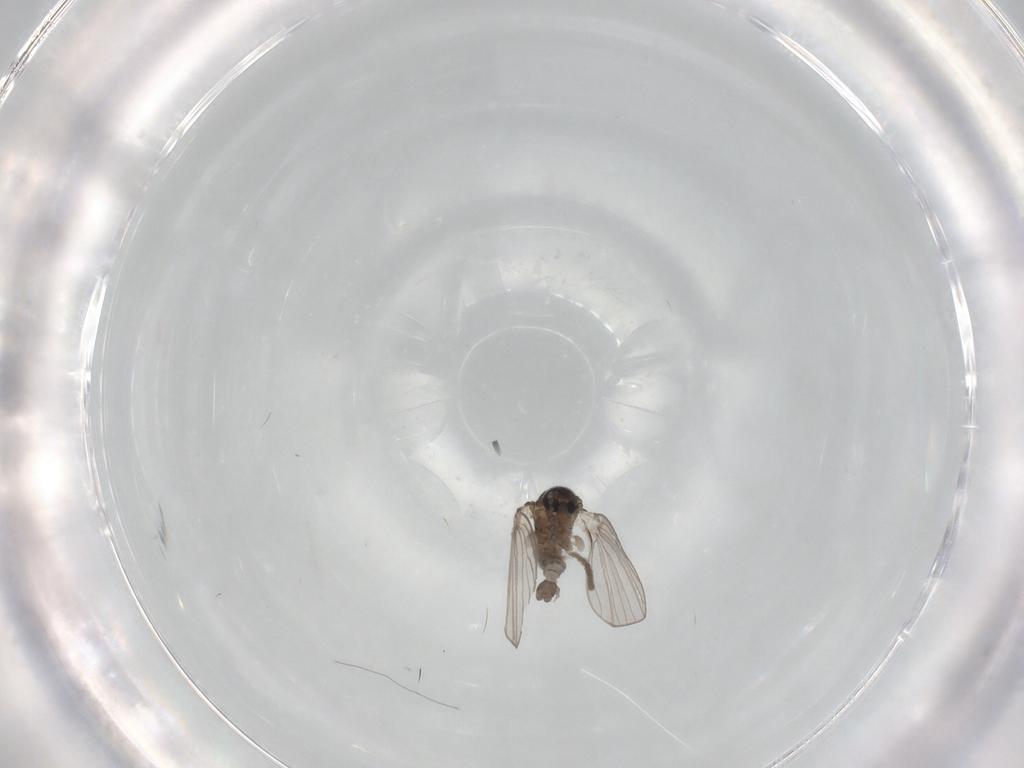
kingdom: Animalia
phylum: Arthropoda
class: Insecta
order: Diptera
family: Psychodidae
